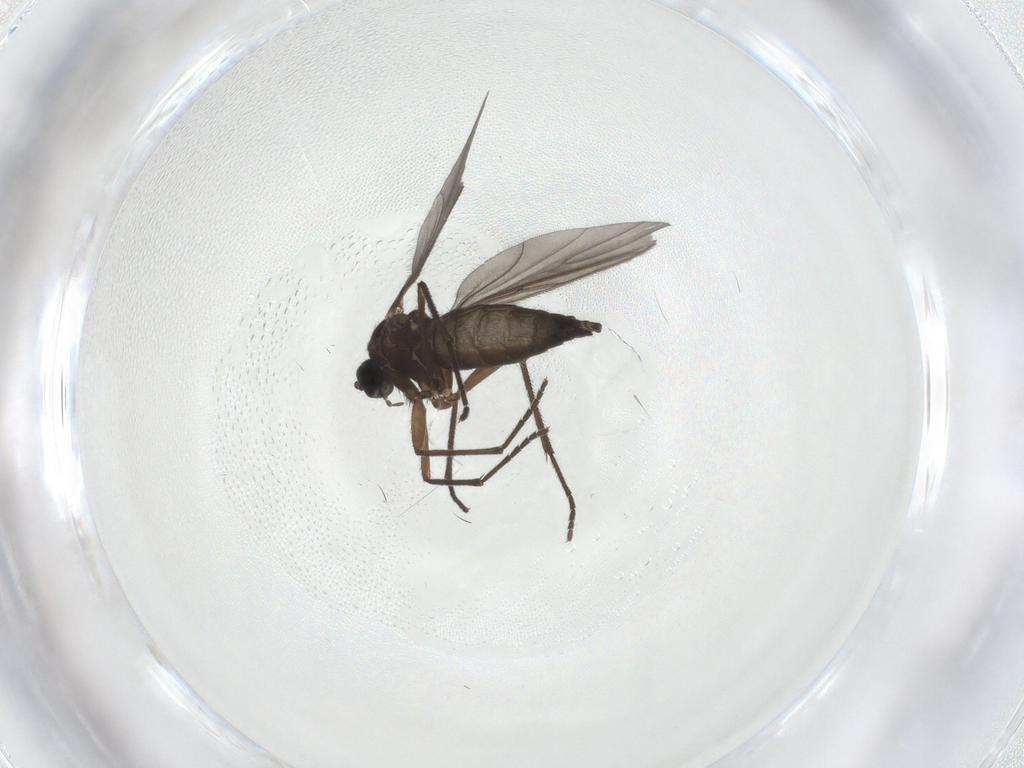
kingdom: Animalia
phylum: Arthropoda
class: Insecta
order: Diptera
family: Sciaridae
